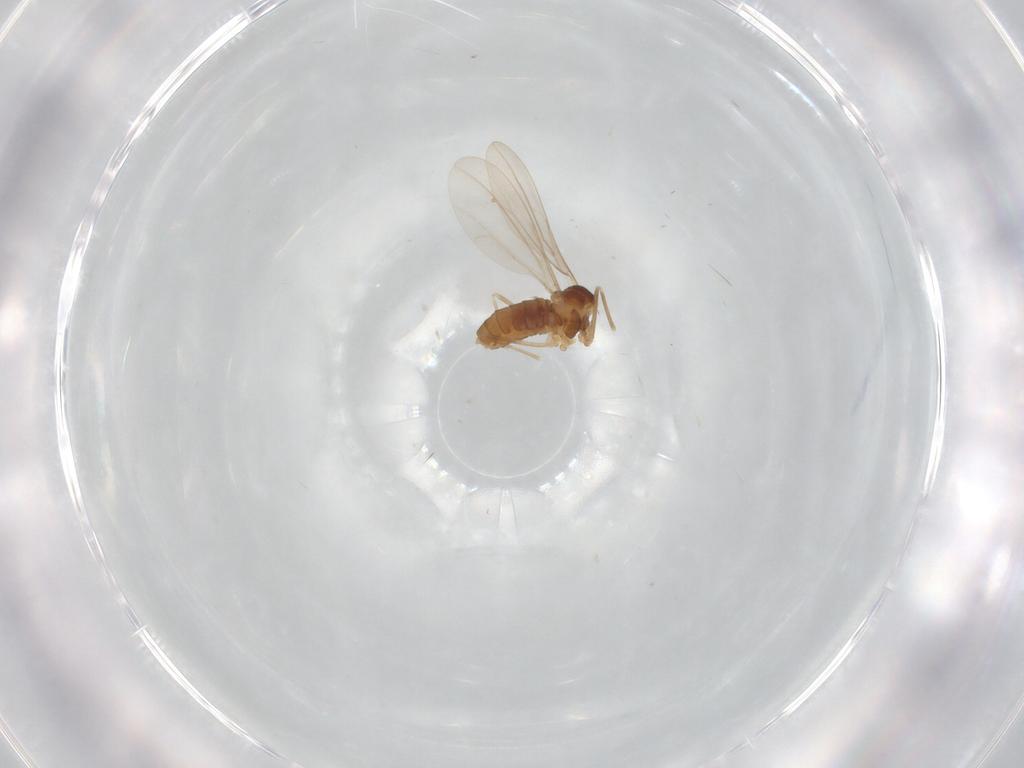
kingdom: Animalia
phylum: Arthropoda
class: Insecta
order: Diptera
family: Cecidomyiidae
